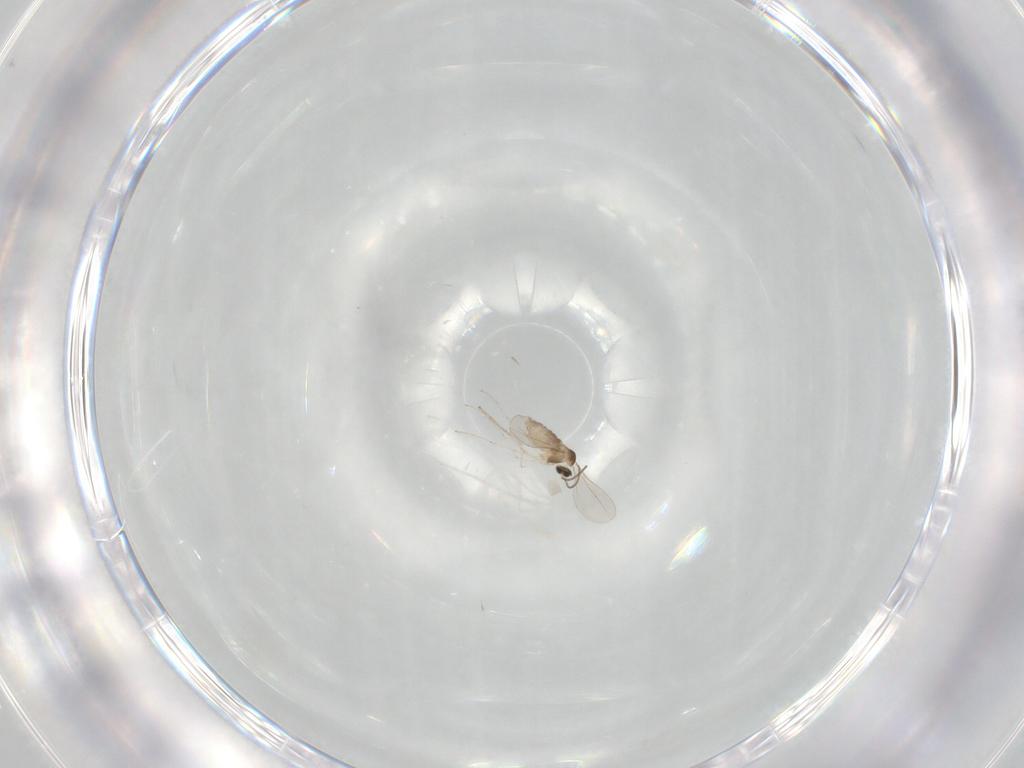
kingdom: Animalia
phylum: Arthropoda
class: Insecta
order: Diptera
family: Cecidomyiidae
